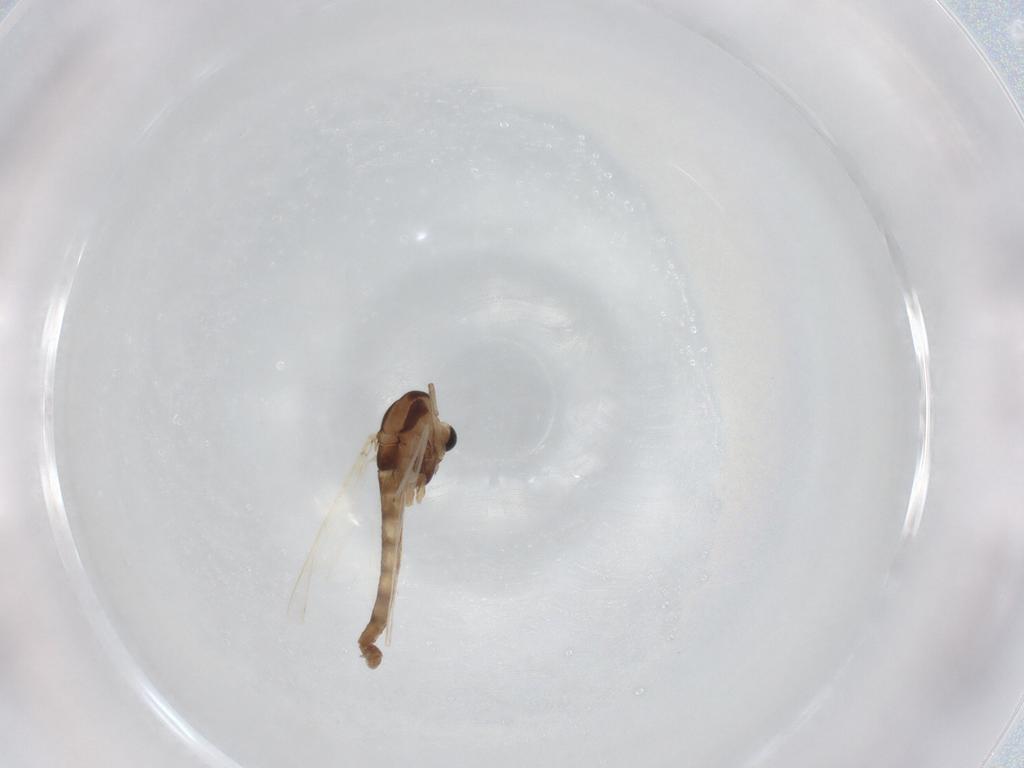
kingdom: Animalia
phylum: Arthropoda
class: Insecta
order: Diptera
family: Chironomidae
